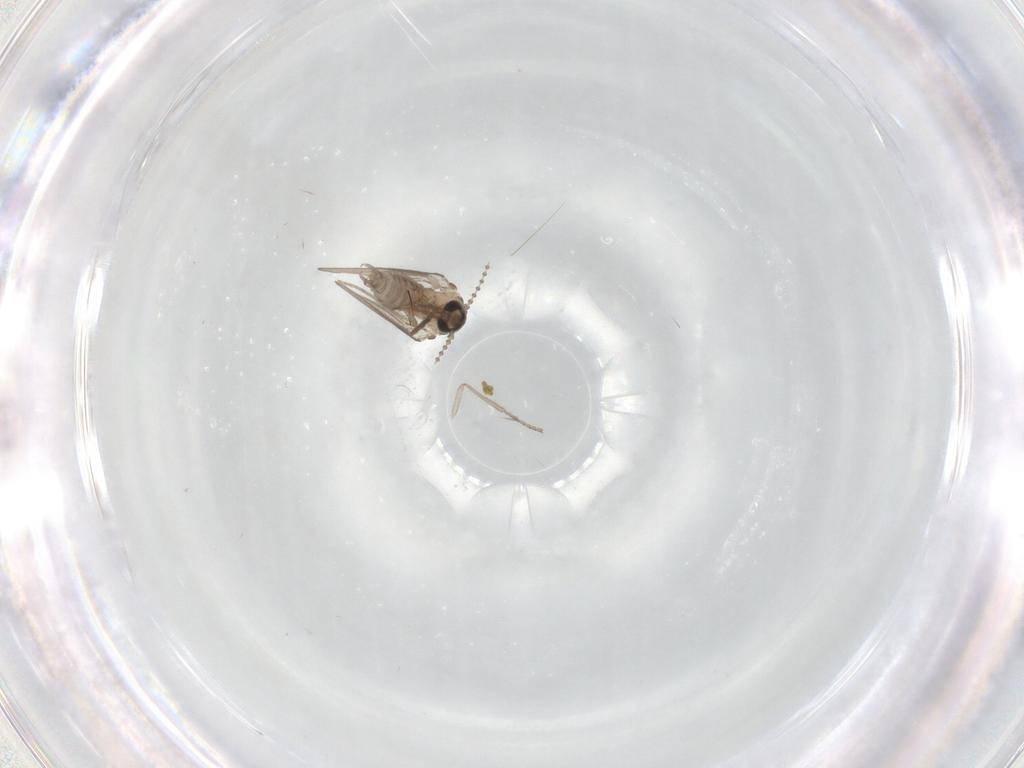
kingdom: Animalia
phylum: Arthropoda
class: Insecta
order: Diptera
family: Psychodidae
